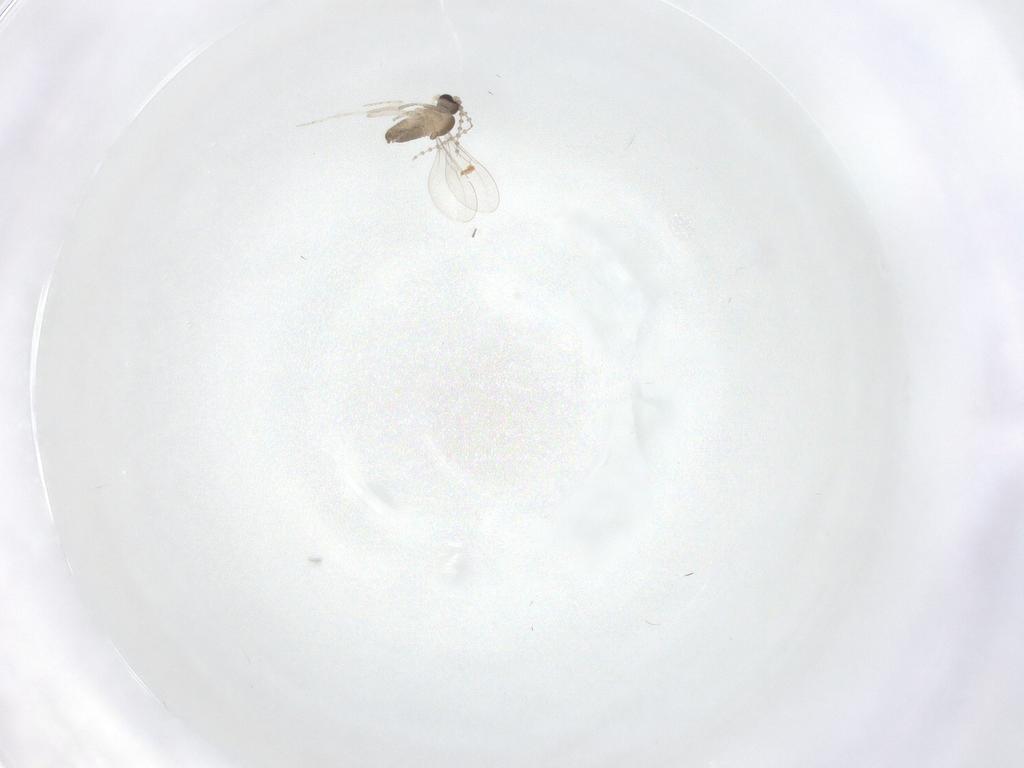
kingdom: Animalia
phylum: Arthropoda
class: Insecta
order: Diptera
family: Cecidomyiidae
